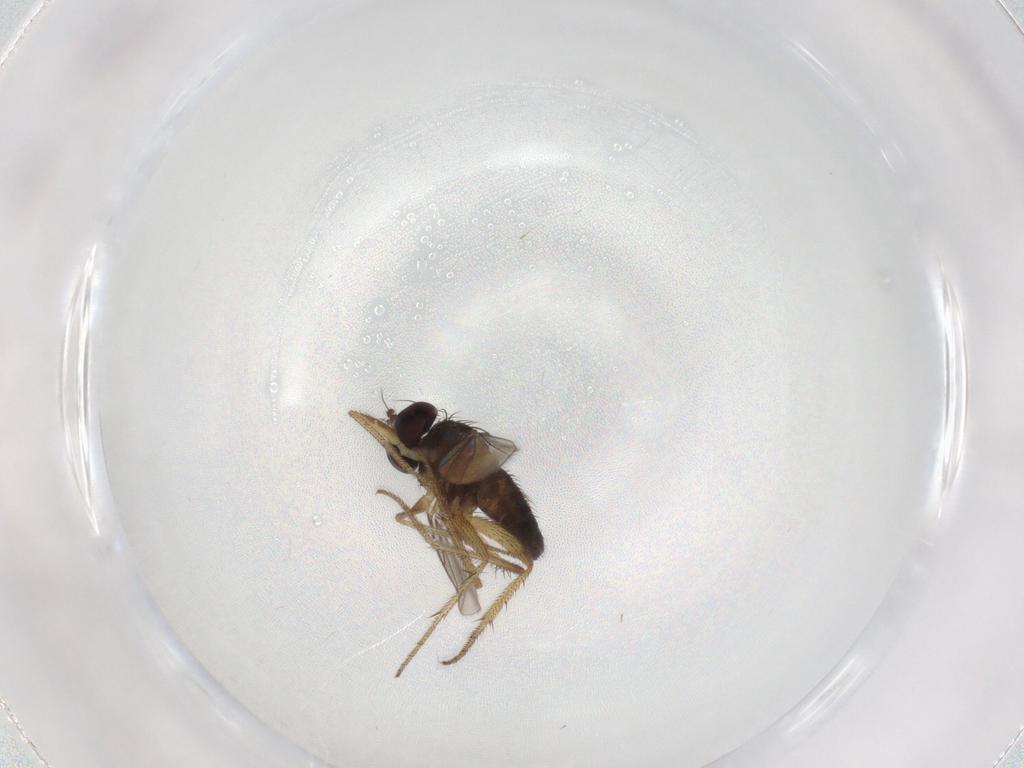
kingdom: Animalia
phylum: Arthropoda
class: Insecta
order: Diptera
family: Dolichopodidae
